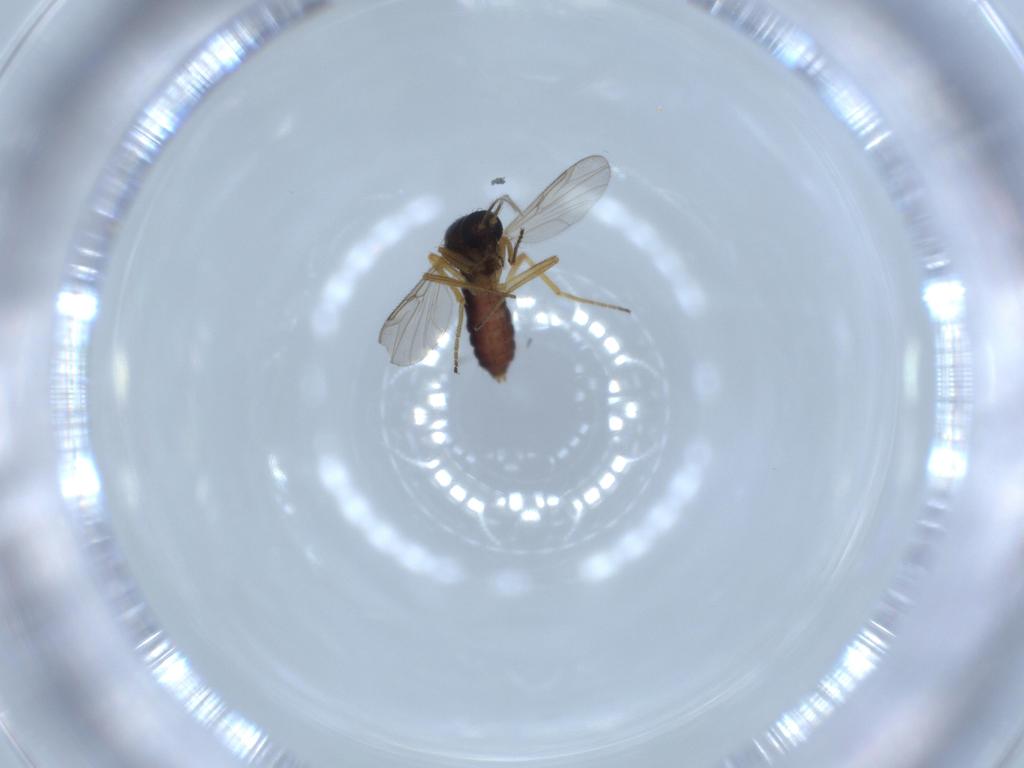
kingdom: Animalia
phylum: Arthropoda
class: Insecta
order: Diptera
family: Ceratopogonidae
